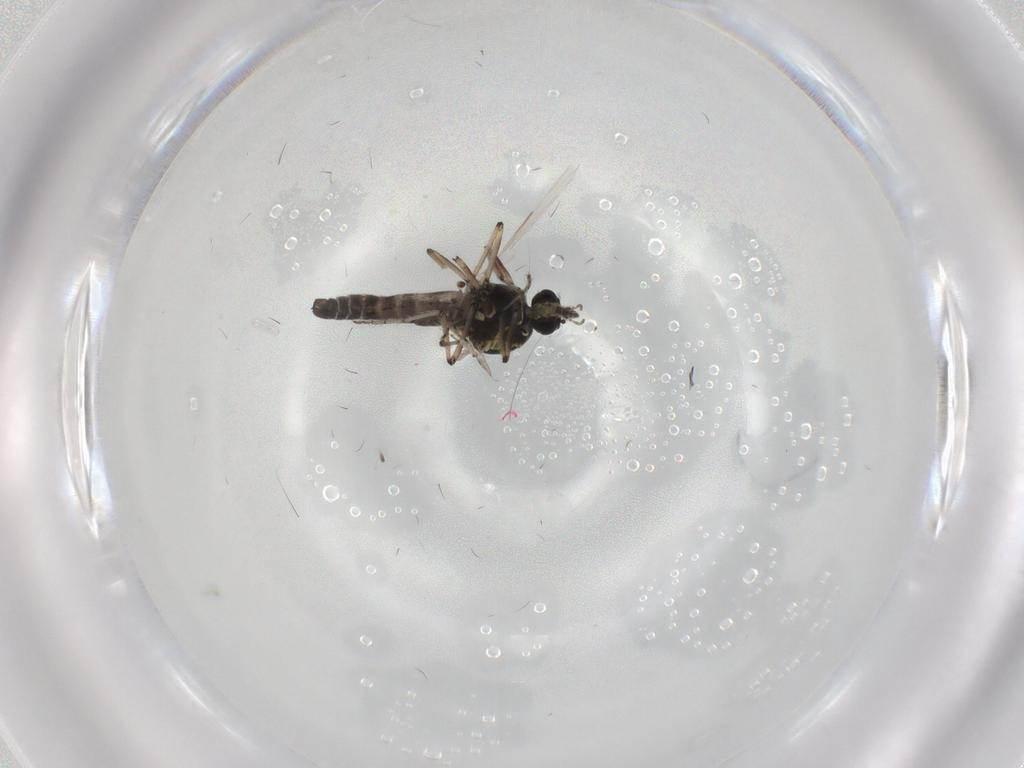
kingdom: Animalia
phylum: Arthropoda
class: Insecta
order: Diptera
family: Ceratopogonidae
